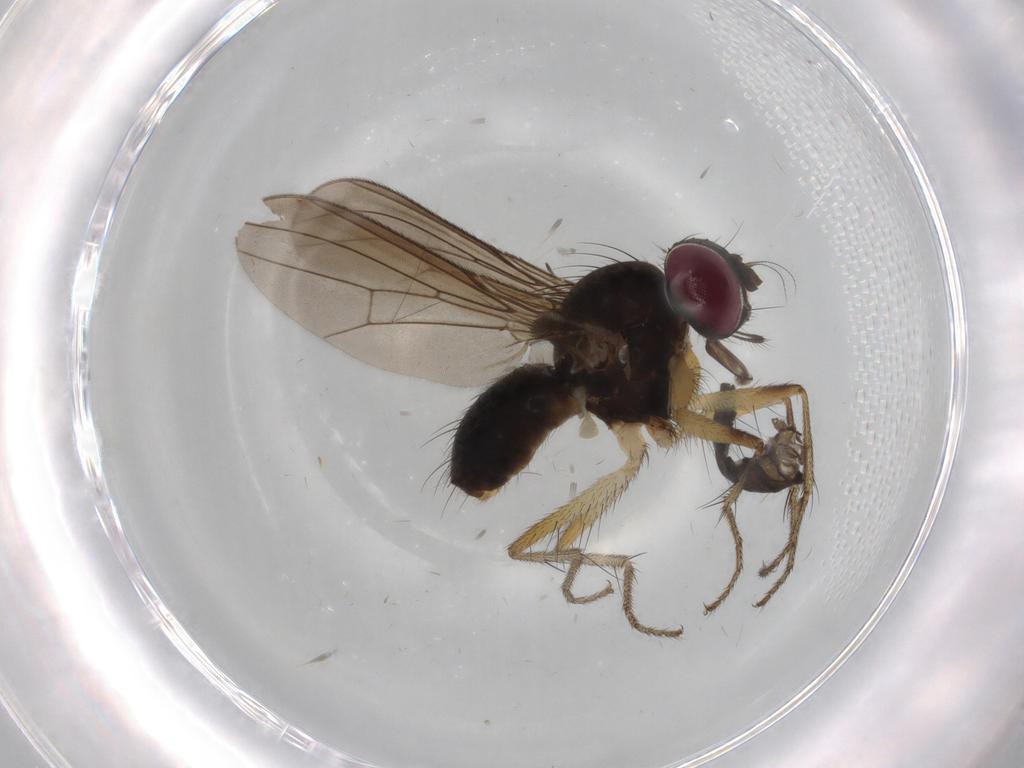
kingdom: Animalia
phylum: Arthropoda
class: Insecta
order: Diptera
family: Anthomyiidae
